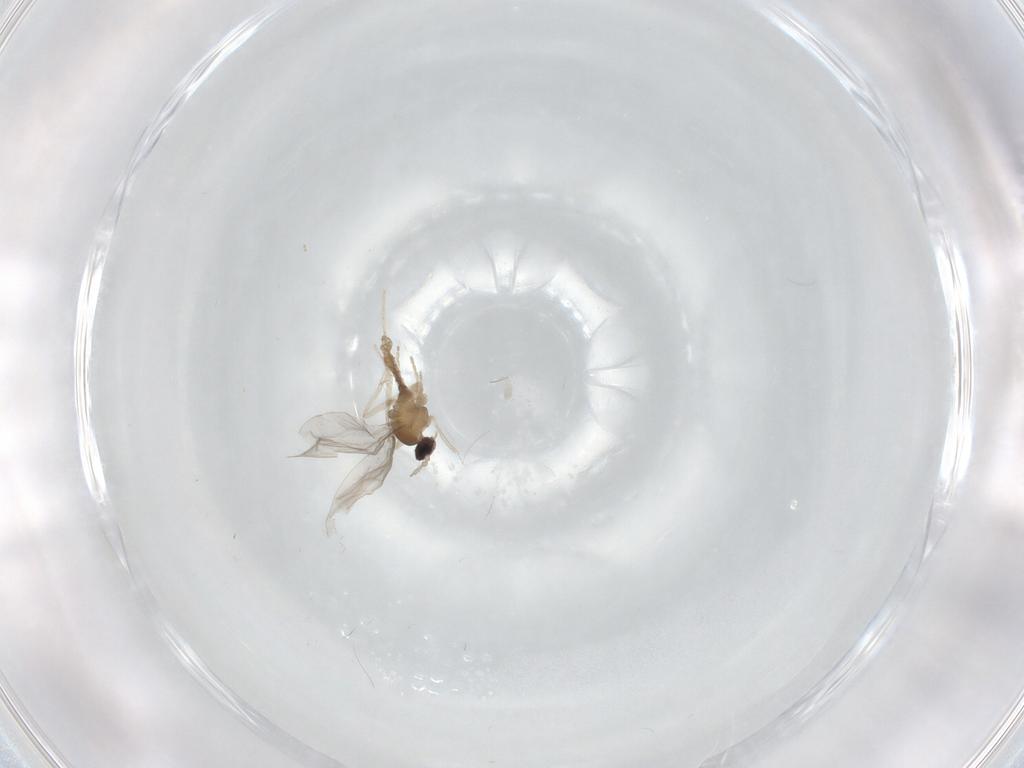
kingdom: Animalia
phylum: Arthropoda
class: Insecta
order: Diptera
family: Cecidomyiidae
